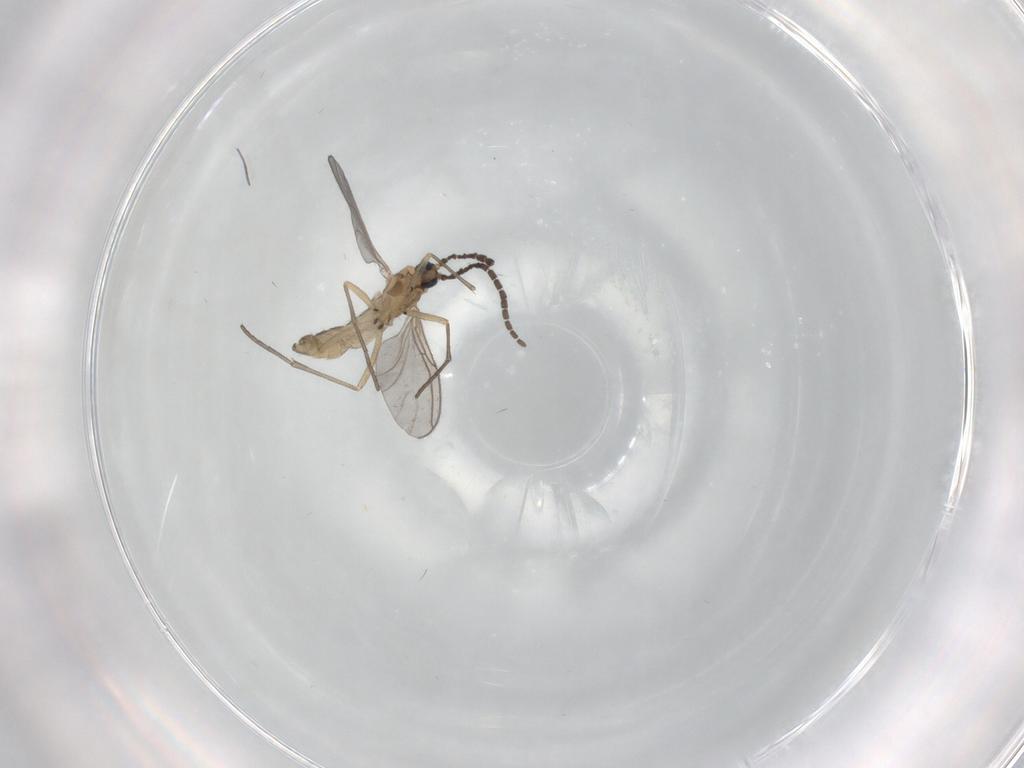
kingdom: Animalia
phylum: Arthropoda
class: Insecta
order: Diptera
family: Sciaridae
